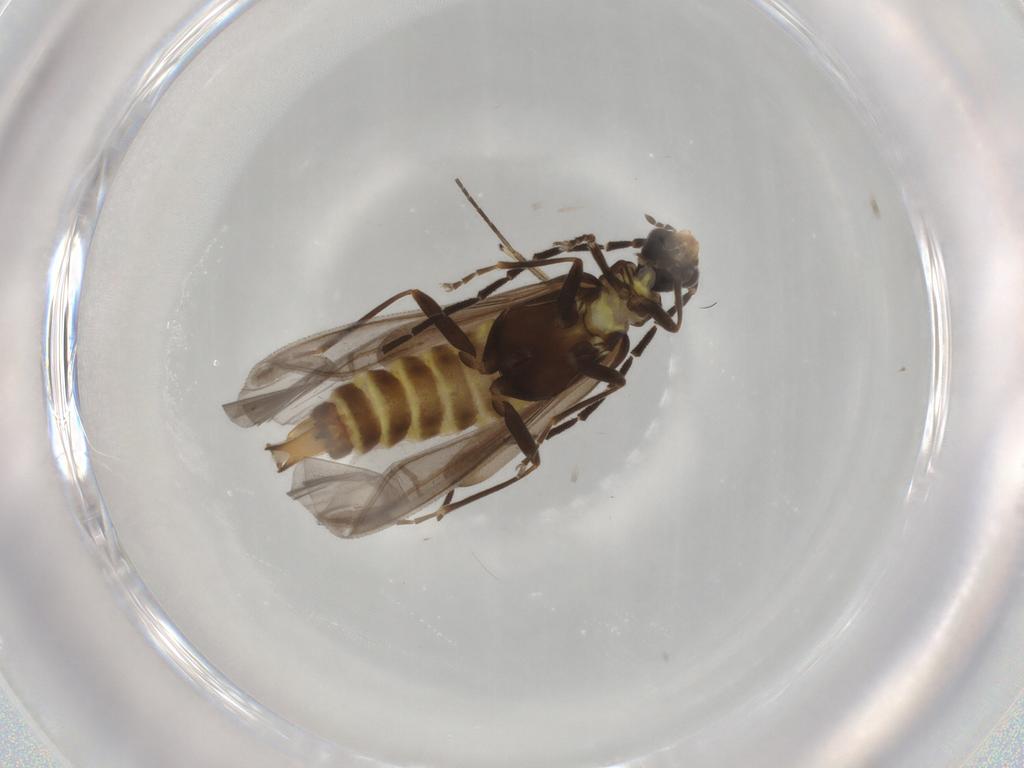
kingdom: Animalia
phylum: Arthropoda
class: Insecta
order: Coleoptera
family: Cantharidae
